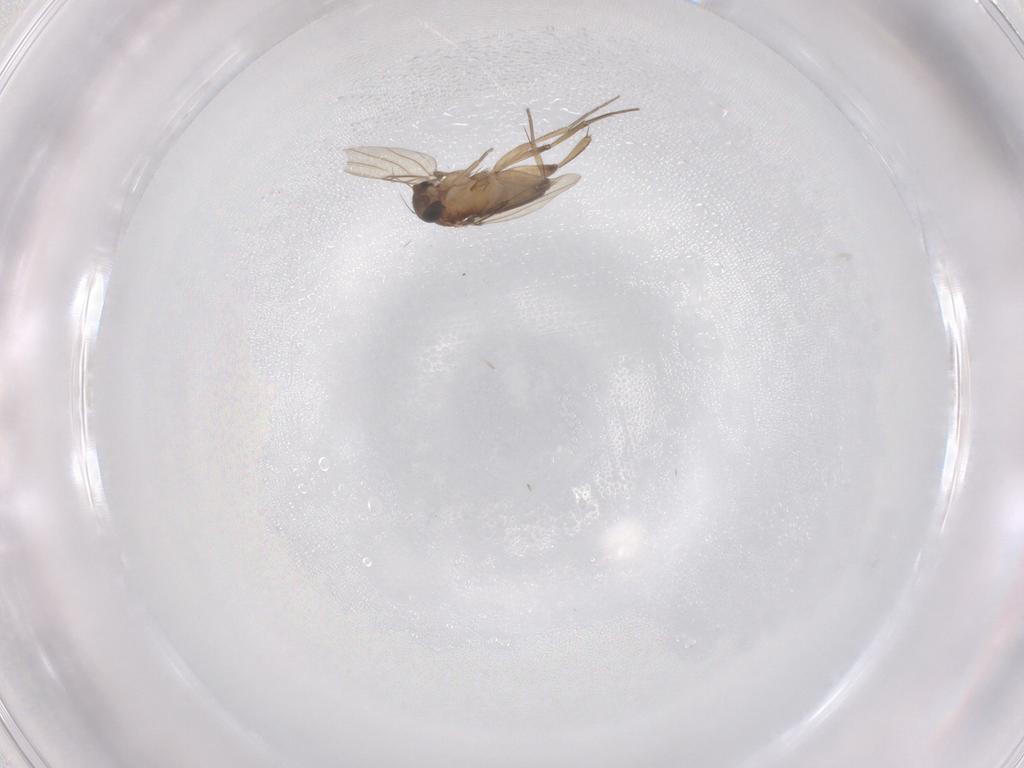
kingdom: Animalia
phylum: Arthropoda
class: Insecta
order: Diptera
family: Phoridae
